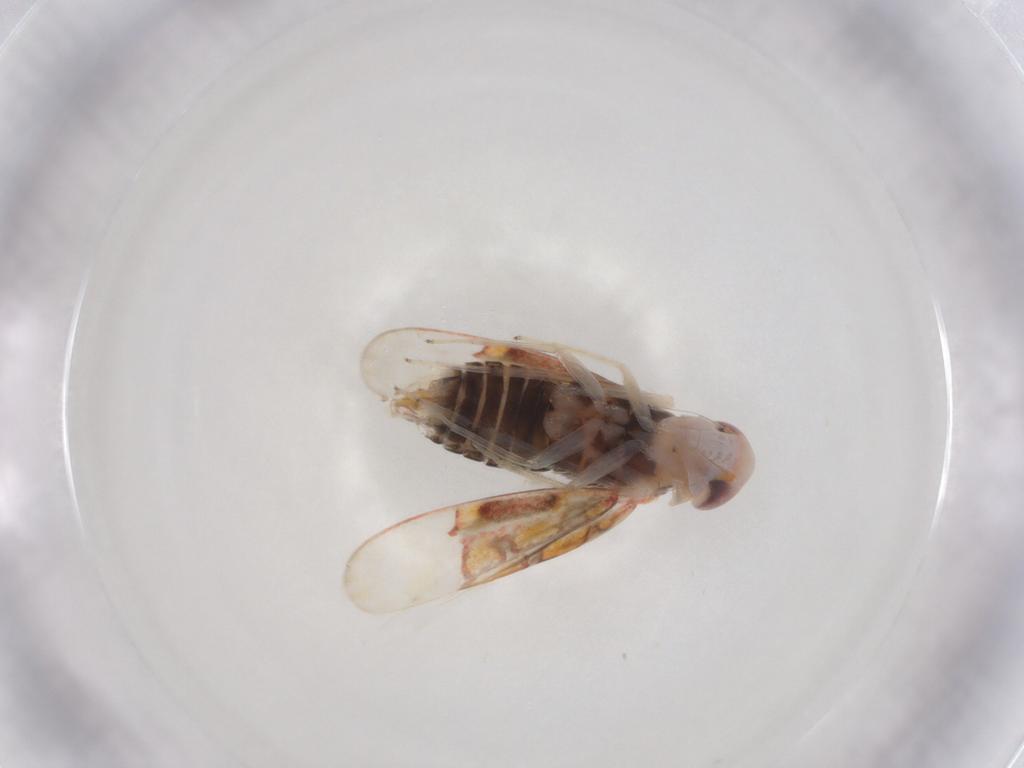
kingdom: Animalia
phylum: Arthropoda
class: Insecta
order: Hemiptera
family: Cicadellidae
